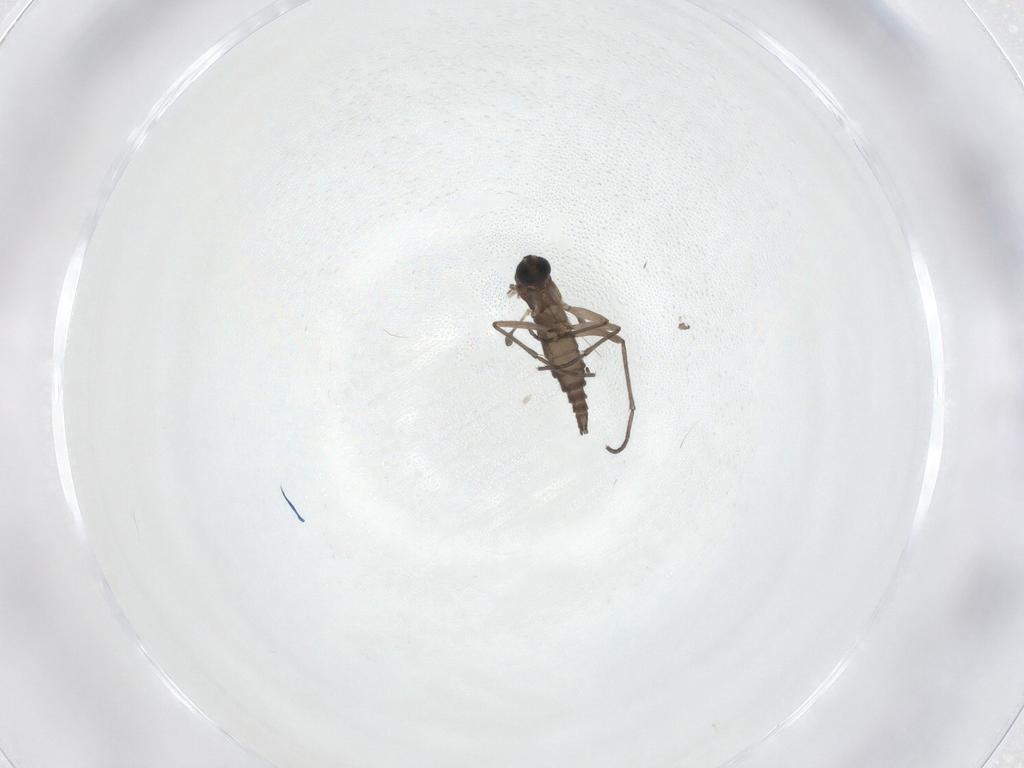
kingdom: Animalia
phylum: Arthropoda
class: Insecta
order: Diptera
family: Sciaridae
